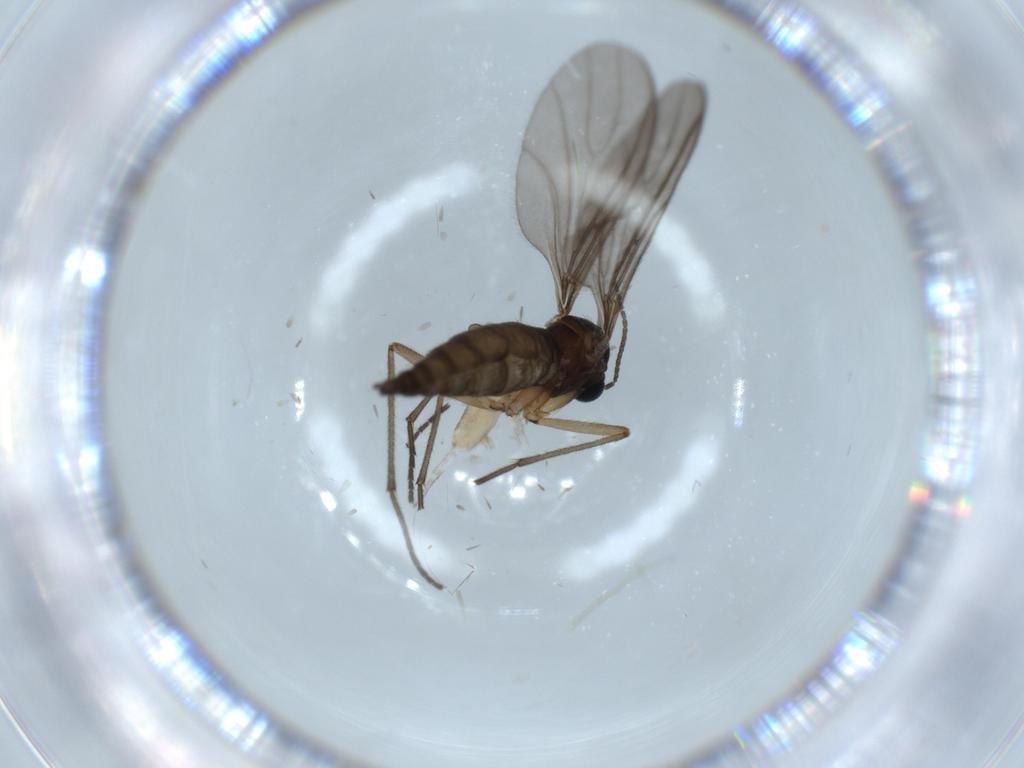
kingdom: Animalia
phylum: Arthropoda
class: Insecta
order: Diptera
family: Sciaridae
